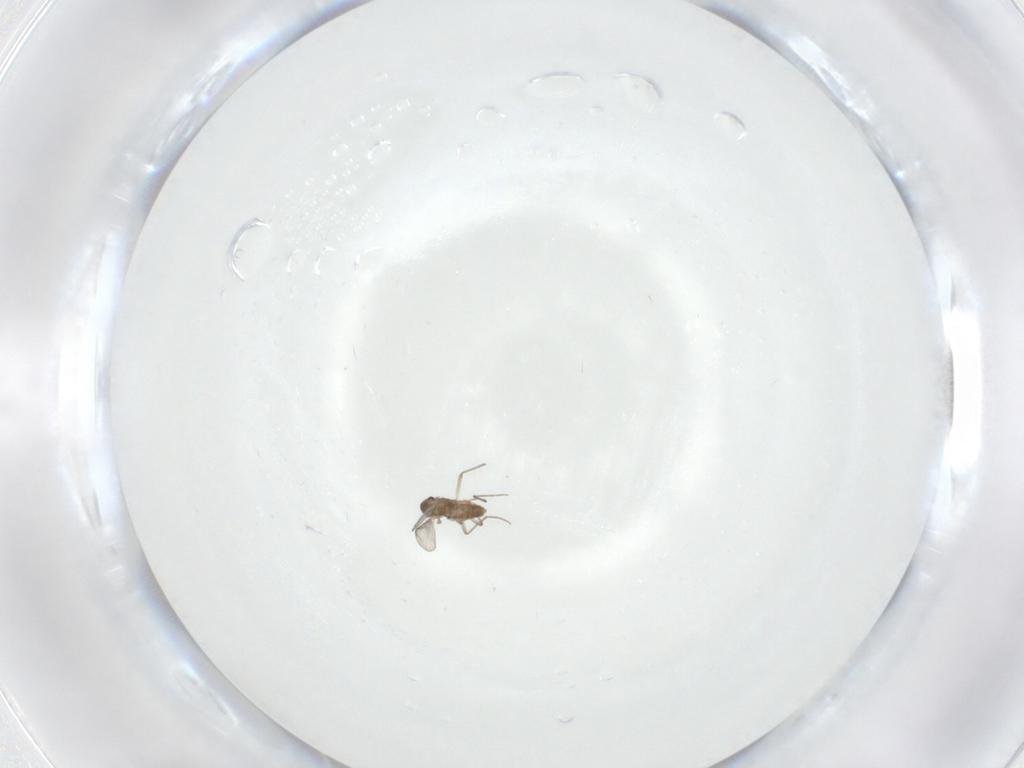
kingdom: Animalia
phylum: Arthropoda
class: Insecta
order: Diptera
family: Chironomidae
